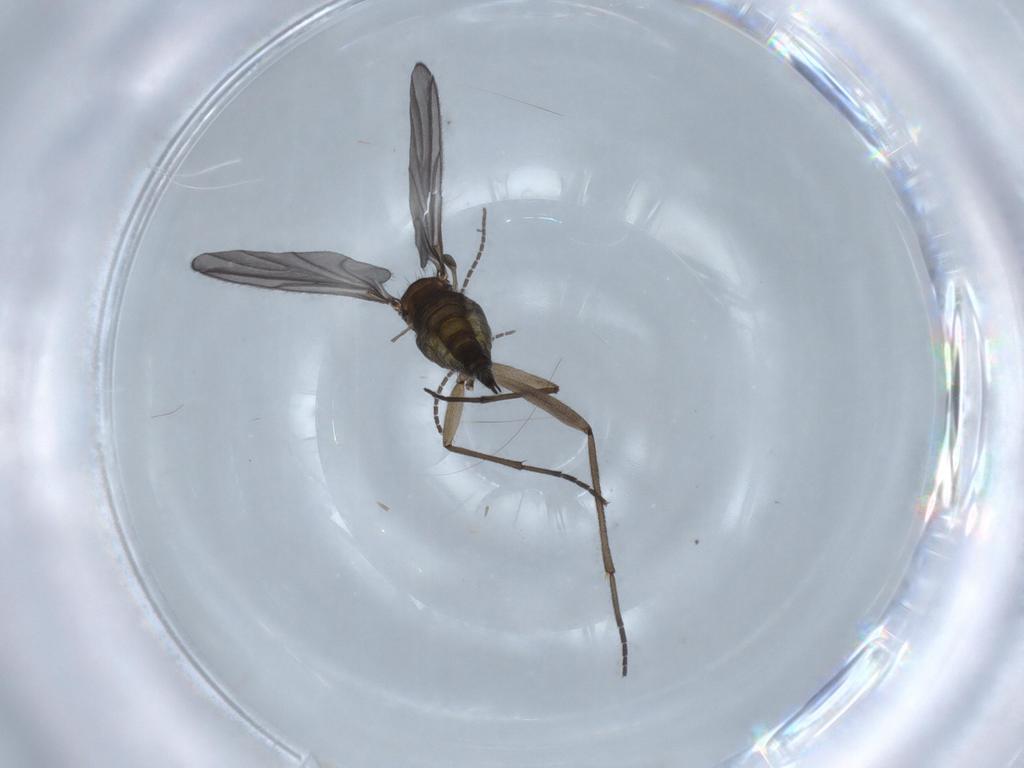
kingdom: Animalia
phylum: Arthropoda
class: Insecta
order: Diptera
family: Sciaridae
